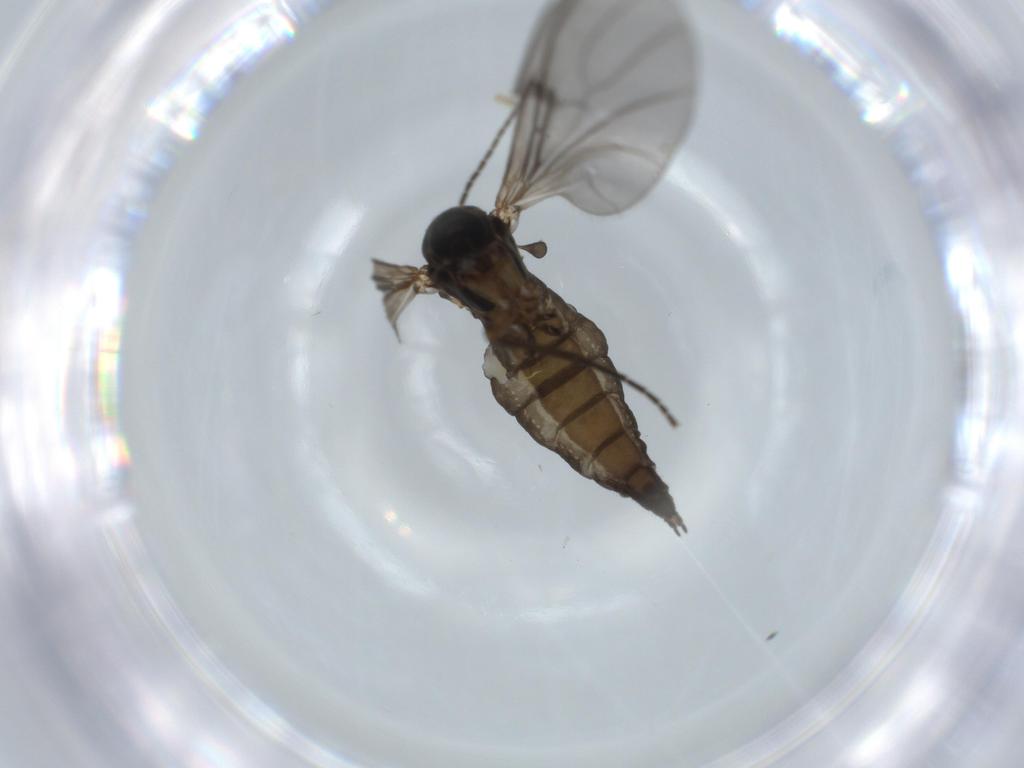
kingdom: Animalia
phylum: Arthropoda
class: Insecta
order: Diptera
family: Sciaridae
